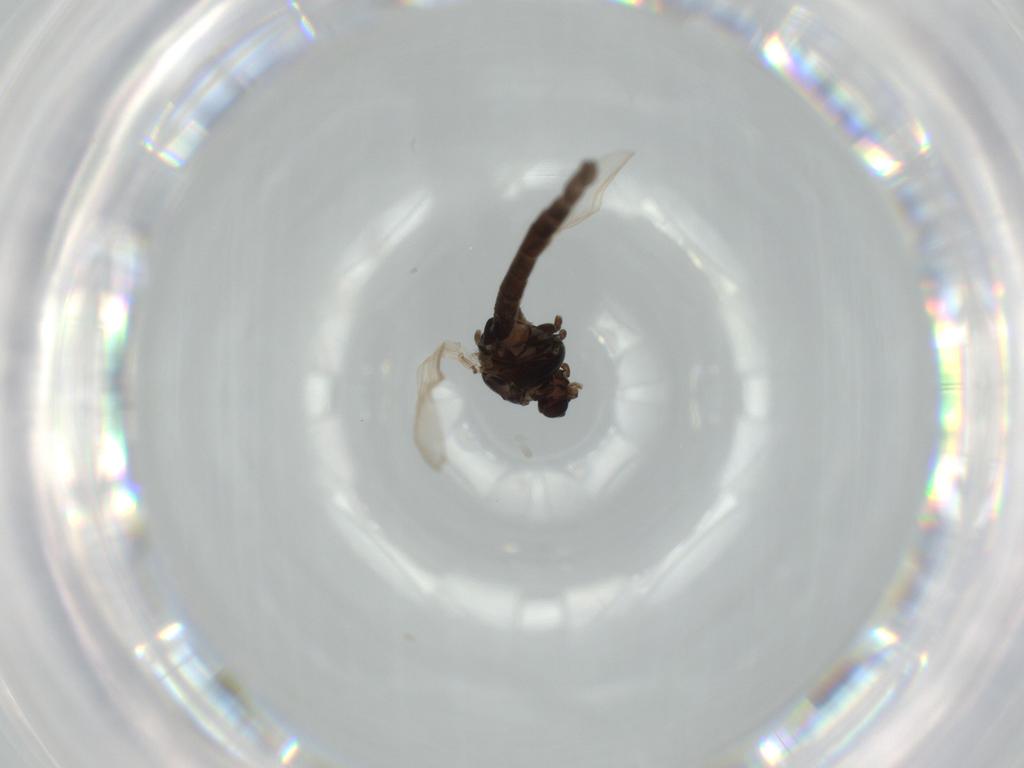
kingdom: Animalia
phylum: Arthropoda
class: Insecta
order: Diptera
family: Chironomidae
